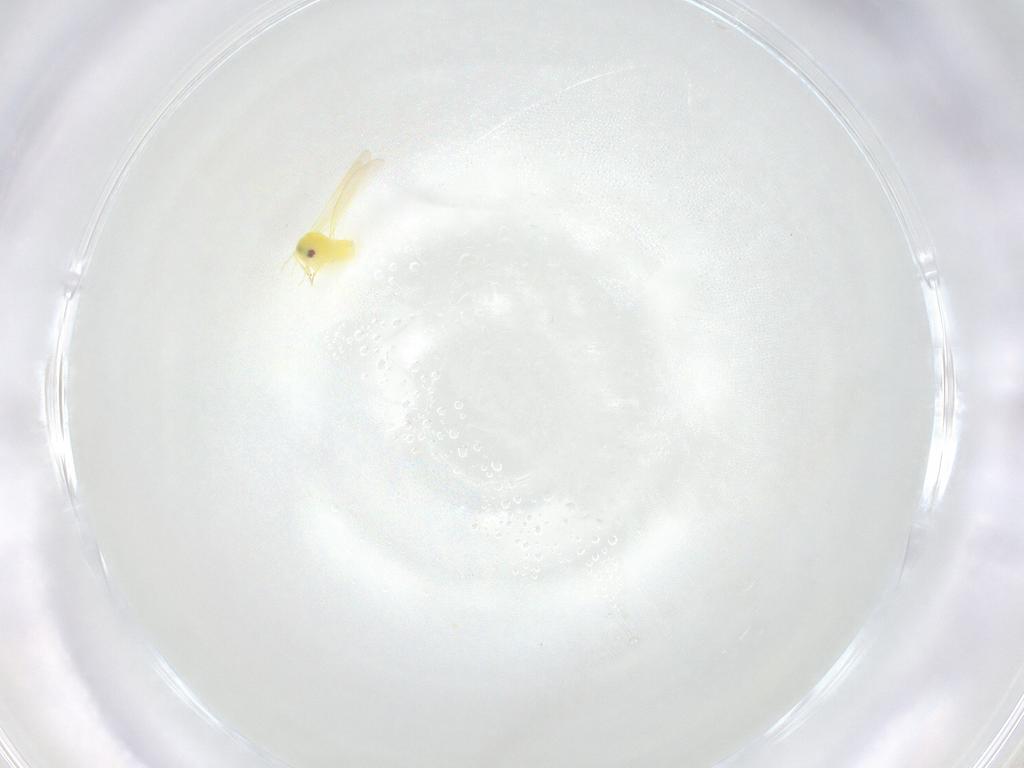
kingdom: Animalia
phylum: Arthropoda
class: Insecta
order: Hemiptera
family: Aleyrodidae
